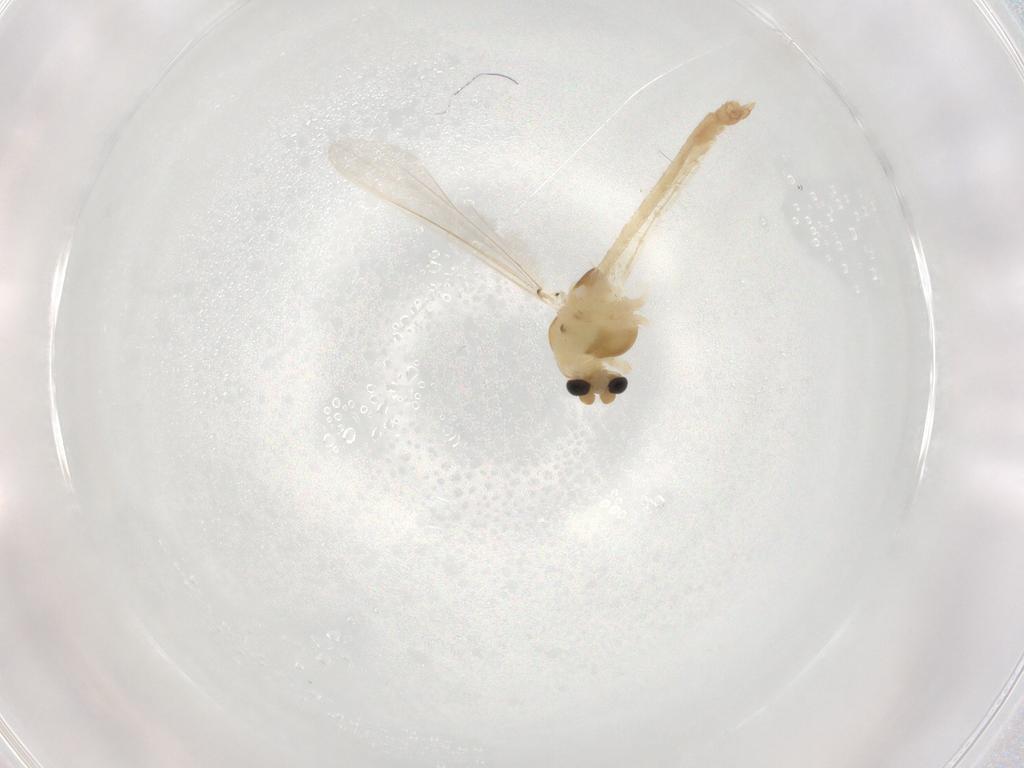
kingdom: Animalia
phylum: Arthropoda
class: Insecta
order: Diptera
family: Chironomidae
